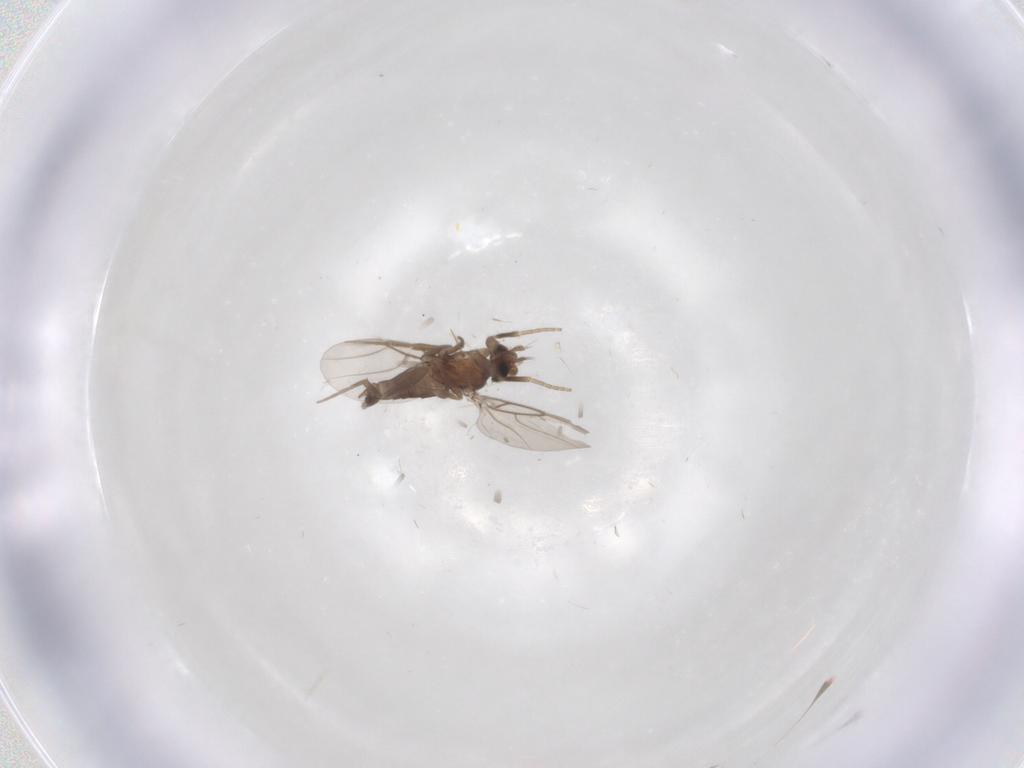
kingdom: Animalia
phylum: Arthropoda
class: Insecta
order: Diptera
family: Phoridae
